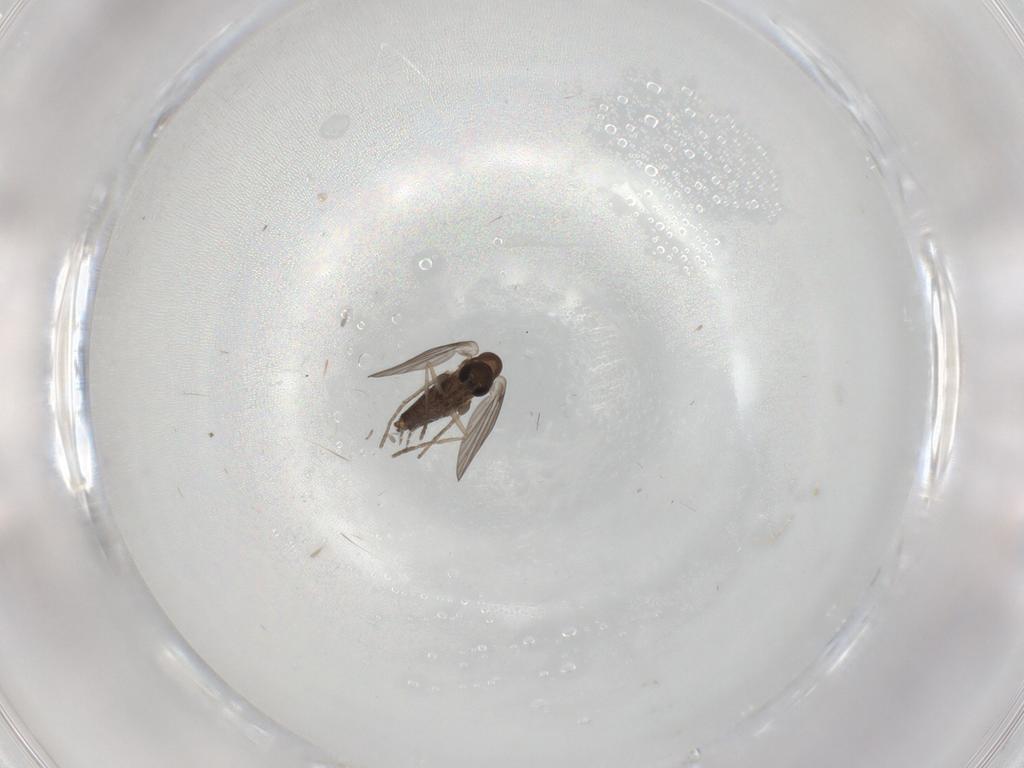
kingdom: Animalia
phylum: Arthropoda
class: Insecta
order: Diptera
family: Phoridae
